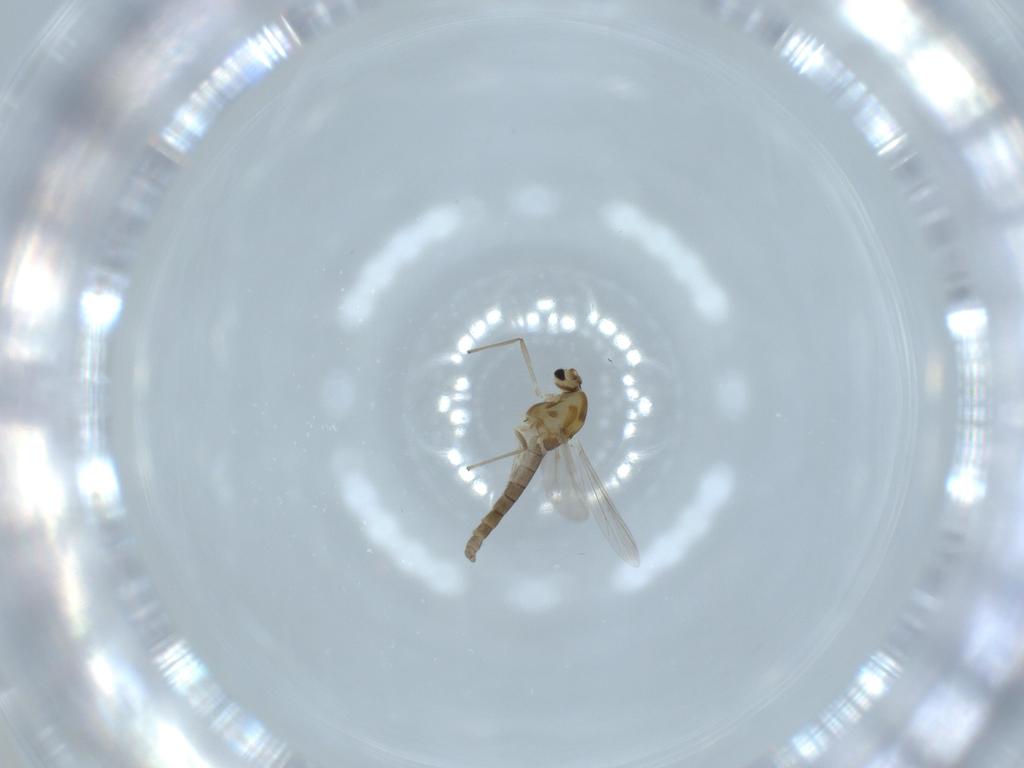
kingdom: Animalia
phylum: Arthropoda
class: Insecta
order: Diptera
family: Chironomidae
